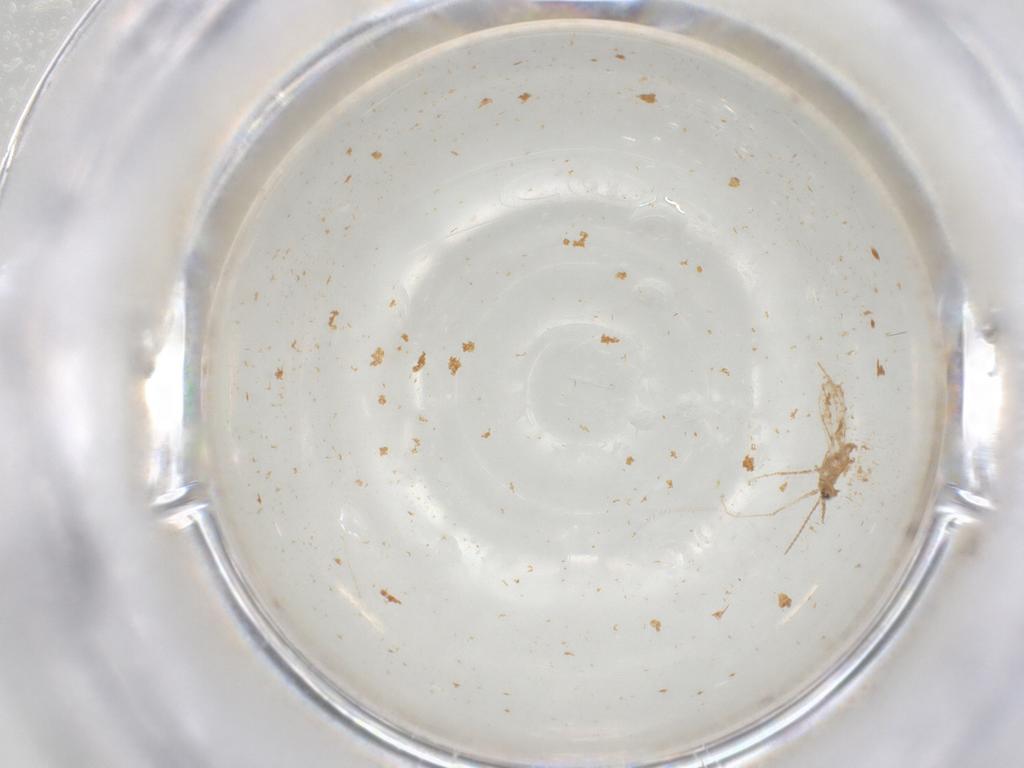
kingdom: Animalia
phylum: Arthropoda
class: Insecta
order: Diptera
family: Sciaridae
